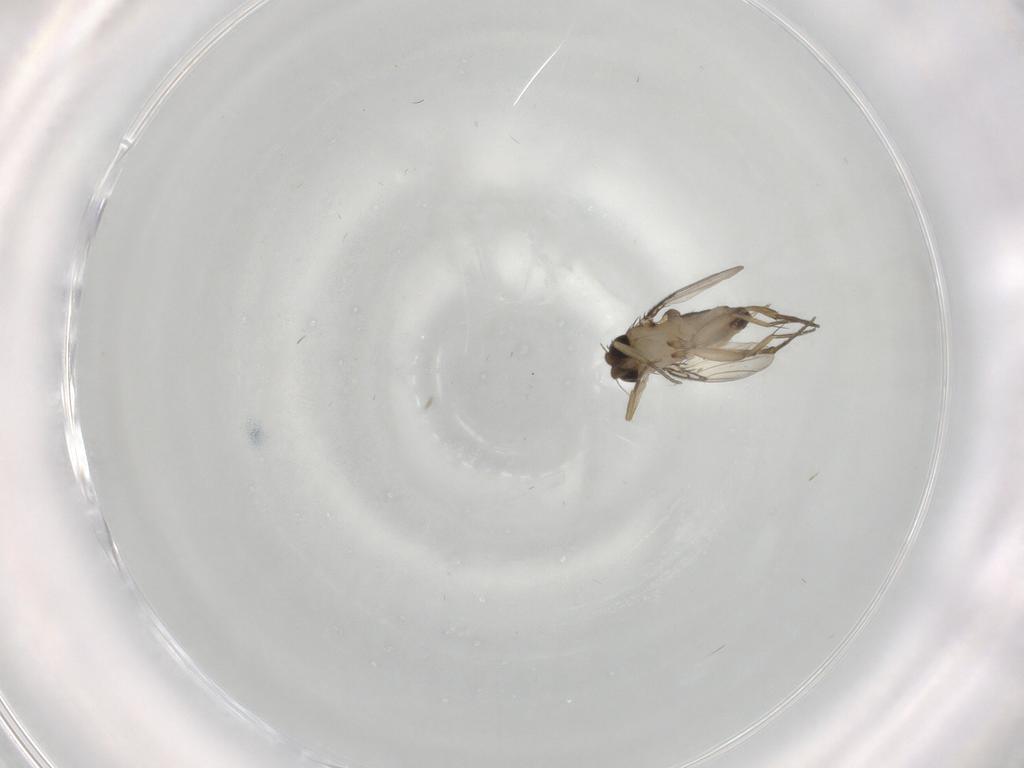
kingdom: Animalia
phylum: Arthropoda
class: Insecta
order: Diptera
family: Phoridae
